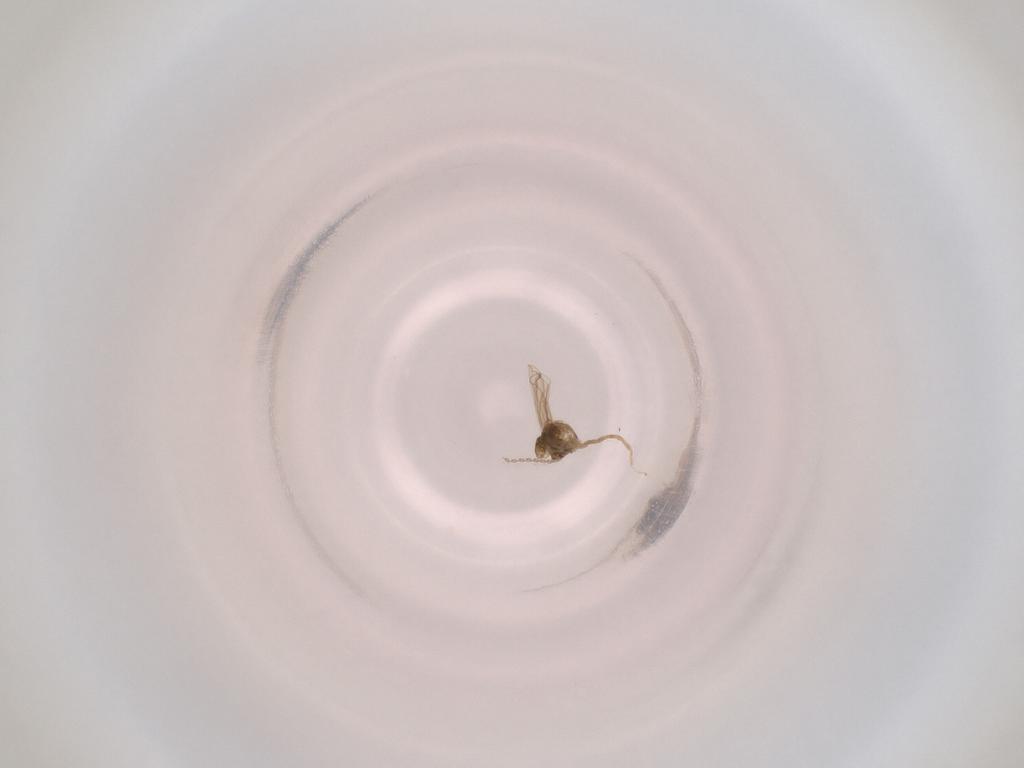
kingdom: Animalia
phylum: Arthropoda
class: Insecta
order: Diptera
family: Cecidomyiidae
